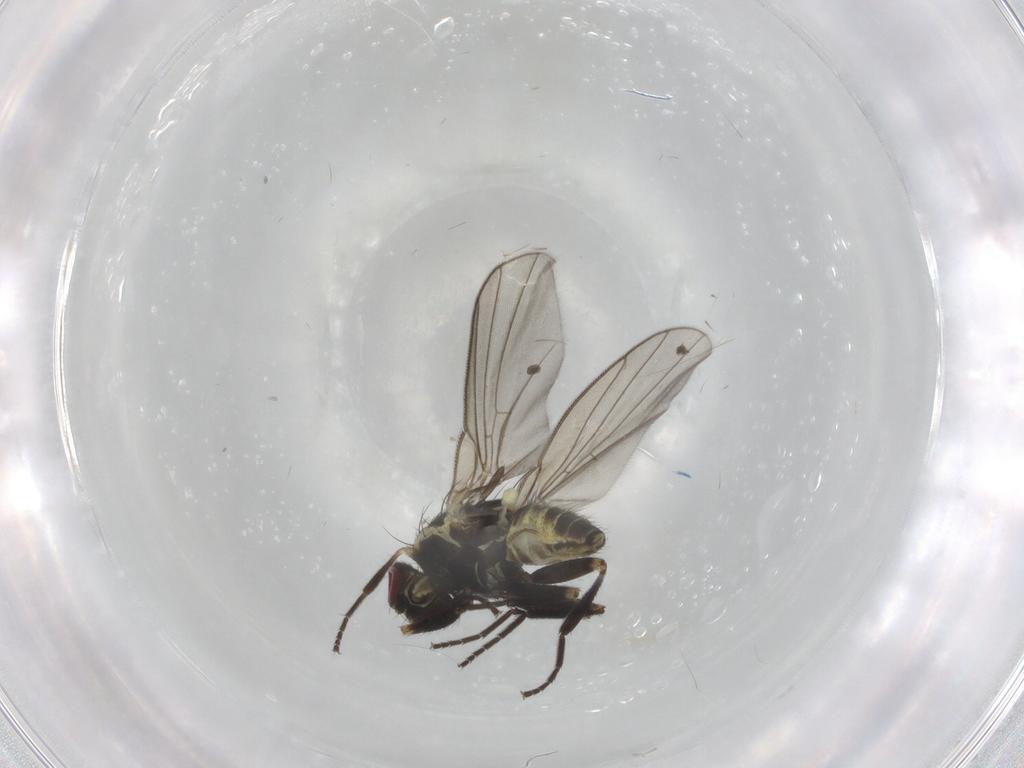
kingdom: Animalia
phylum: Arthropoda
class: Insecta
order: Diptera
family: Agromyzidae
